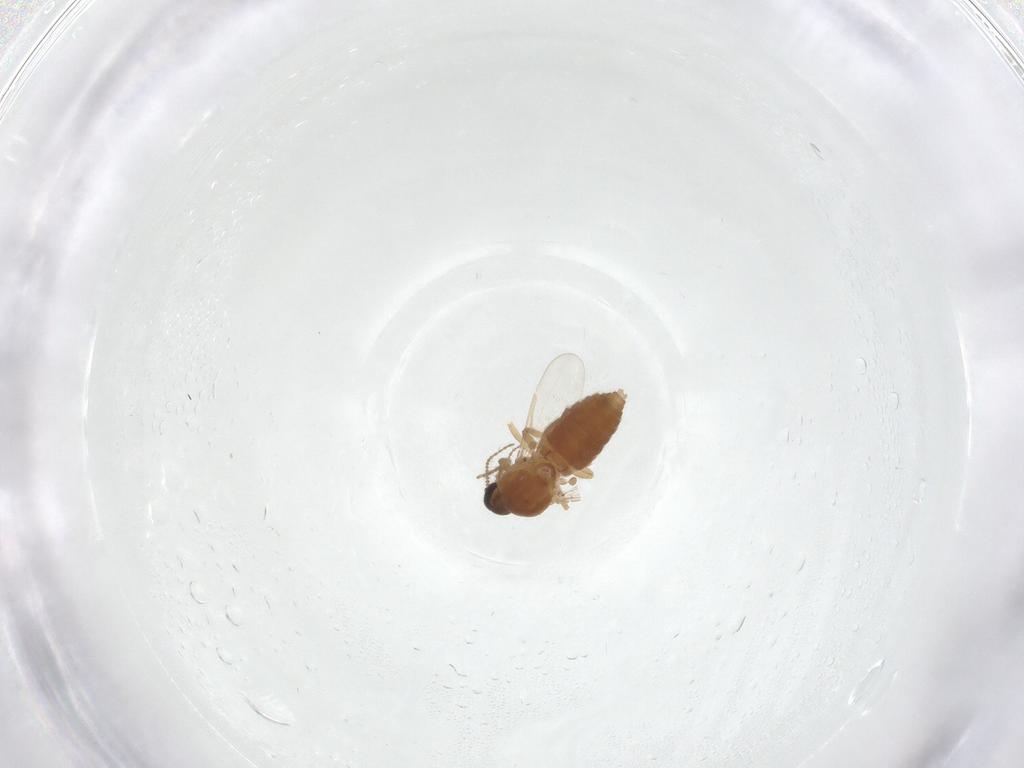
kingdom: Animalia
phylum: Arthropoda
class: Insecta
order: Diptera
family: Ceratopogonidae
